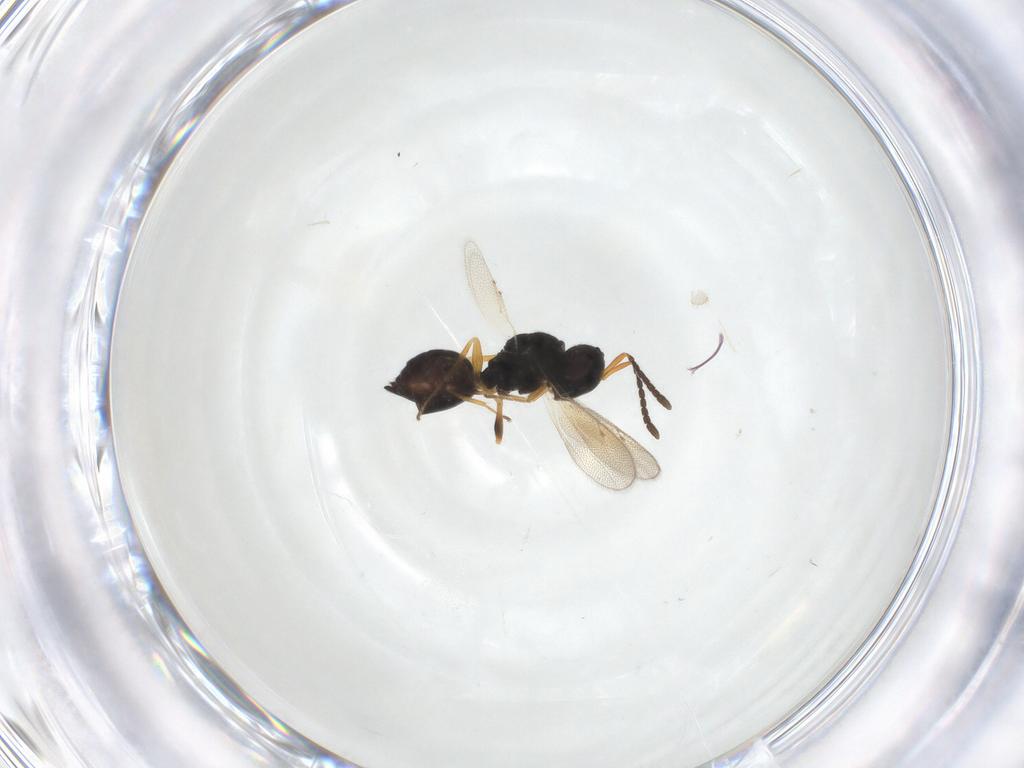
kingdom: Animalia
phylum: Arthropoda
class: Insecta
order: Hymenoptera
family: Pteromalidae
